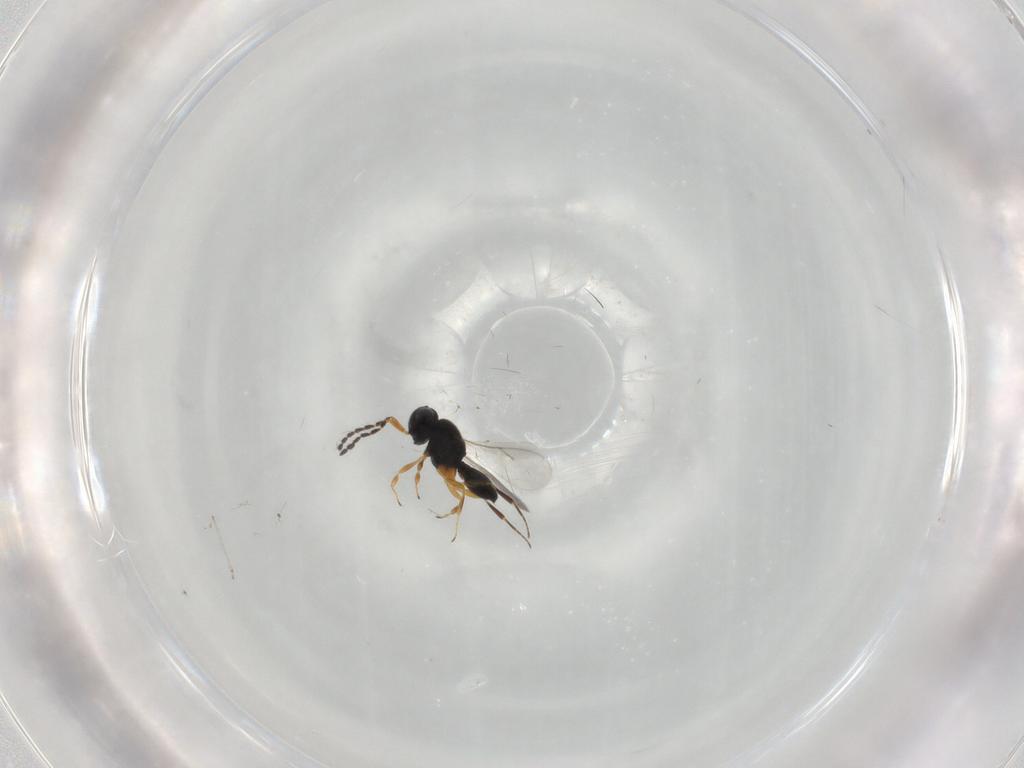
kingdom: Animalia
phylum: Arthropoda
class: Insecta
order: Hymenoptera
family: Scelionidae
